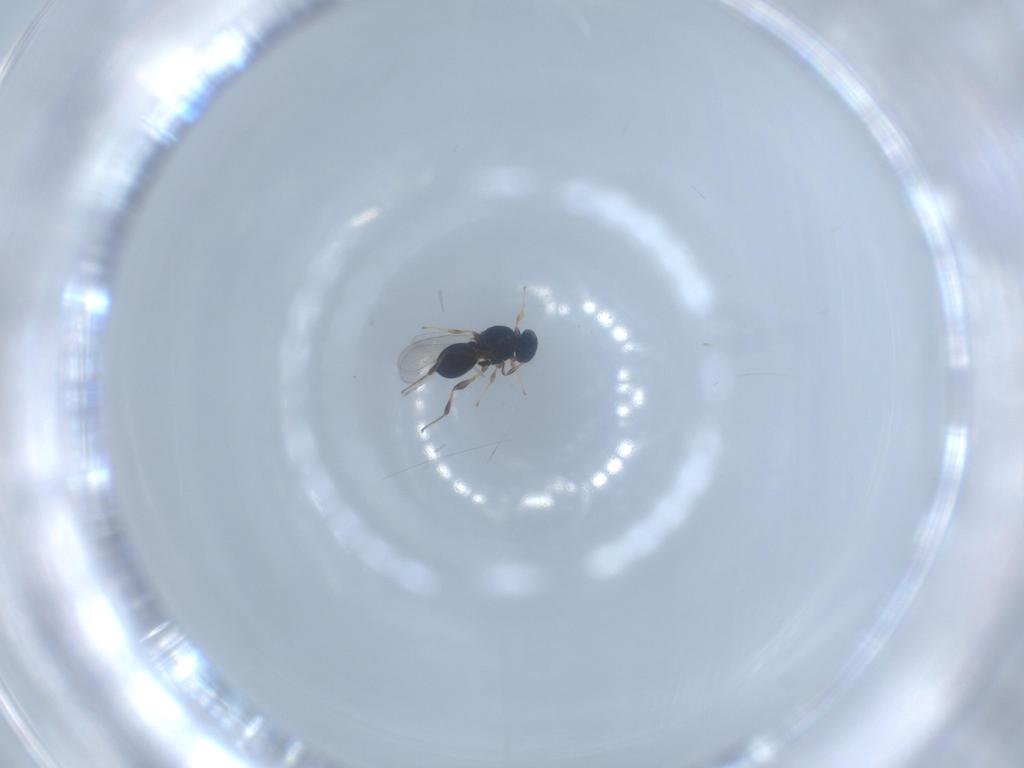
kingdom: Animalia
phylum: Arthropoda
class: Insecta
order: Hymenoptera
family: Platygastridae
